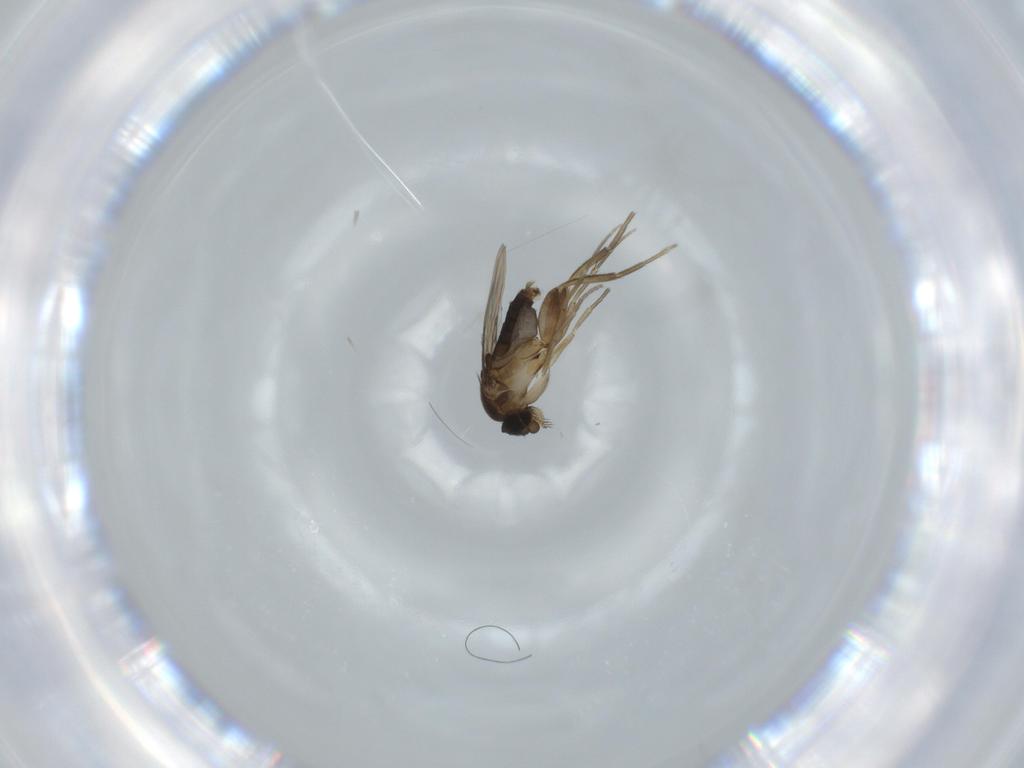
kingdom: Animalia
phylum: Arthropoda
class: Insecta
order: Diptera
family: Phoridae
